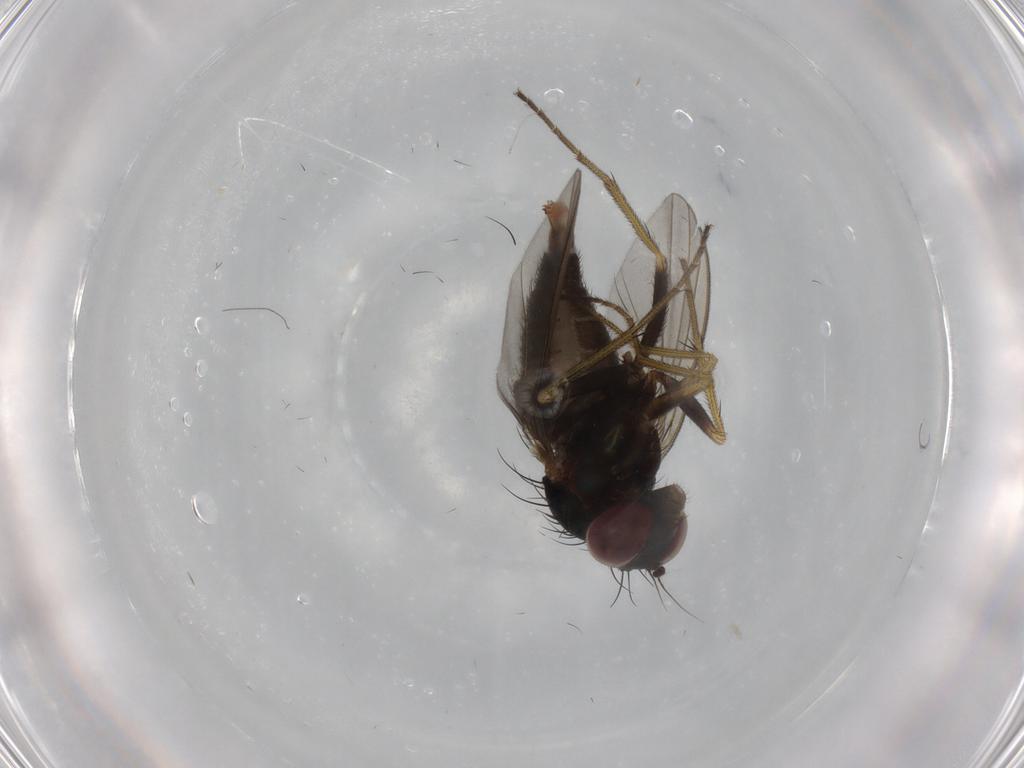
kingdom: Animalia
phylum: Arthropoda
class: Insecta
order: Diptera
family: Dolichopodidae
